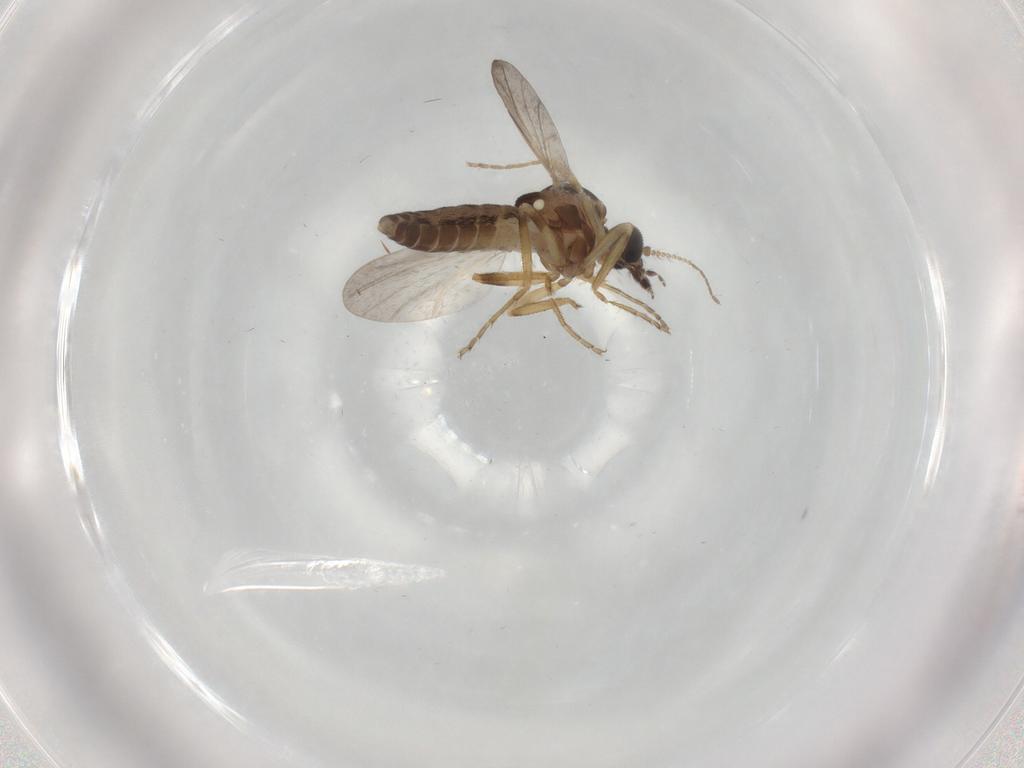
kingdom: Animalia
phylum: Arthropoda
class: Insecta
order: Diptera
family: Ceratopogonidae
